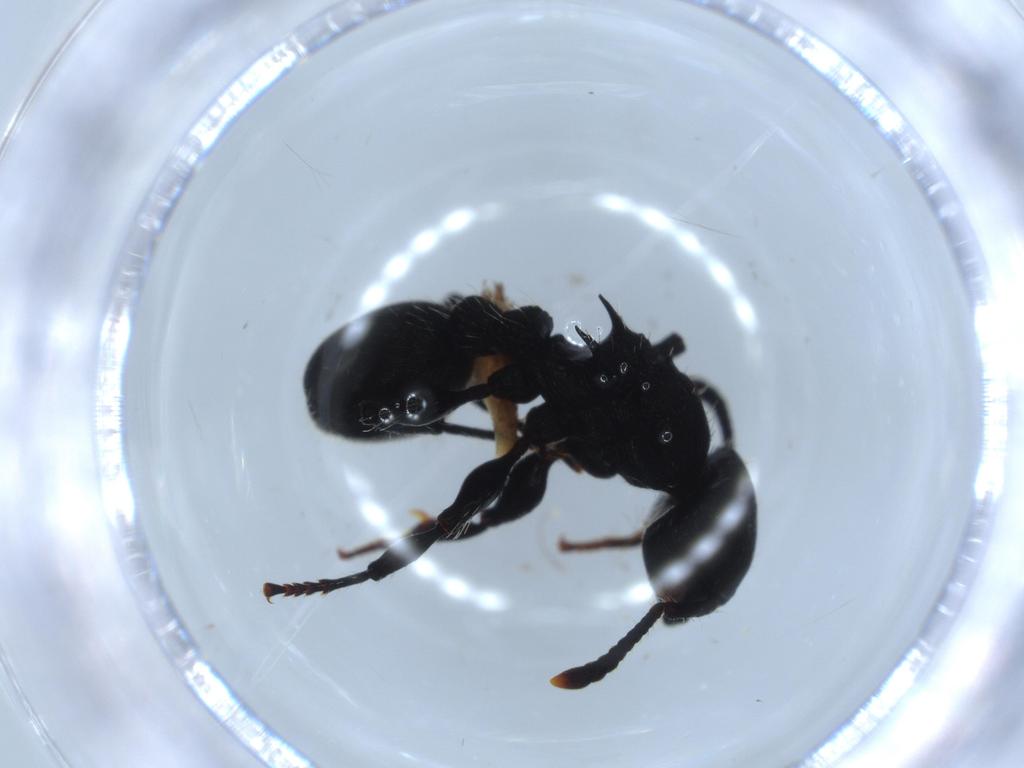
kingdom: Animalia
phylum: Arthropoda
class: Insecta
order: Hymenoptera
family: Formicidae
